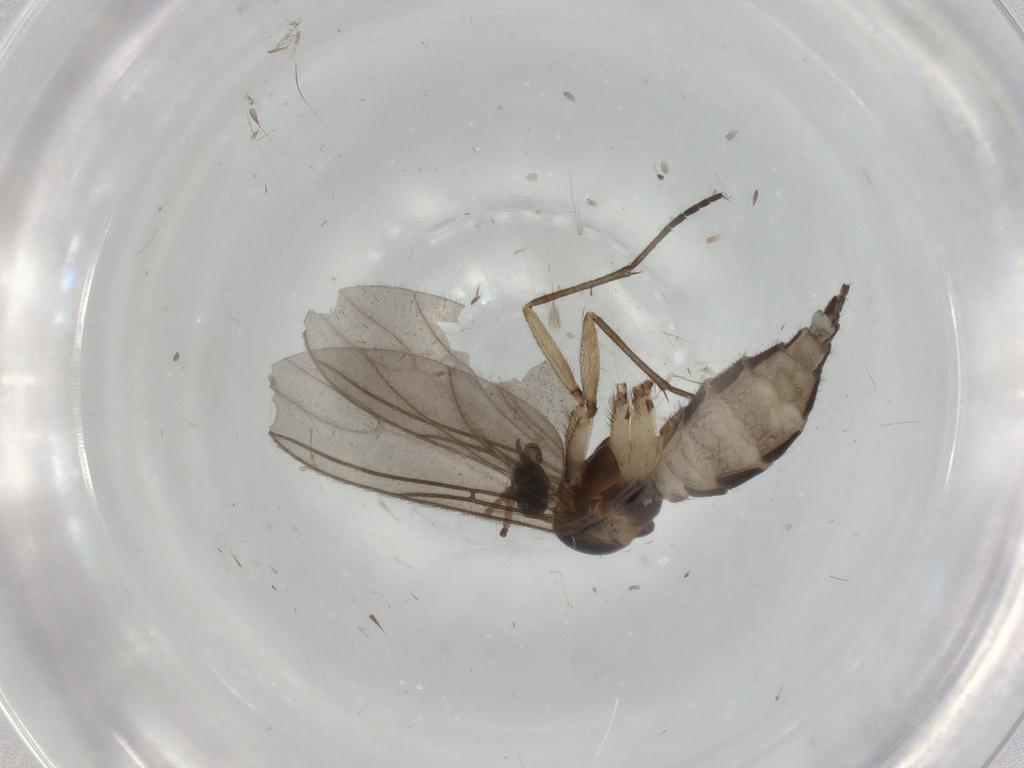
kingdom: Animalia
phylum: Arthropoda
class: Insecta
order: Diptera
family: Sciaridae
